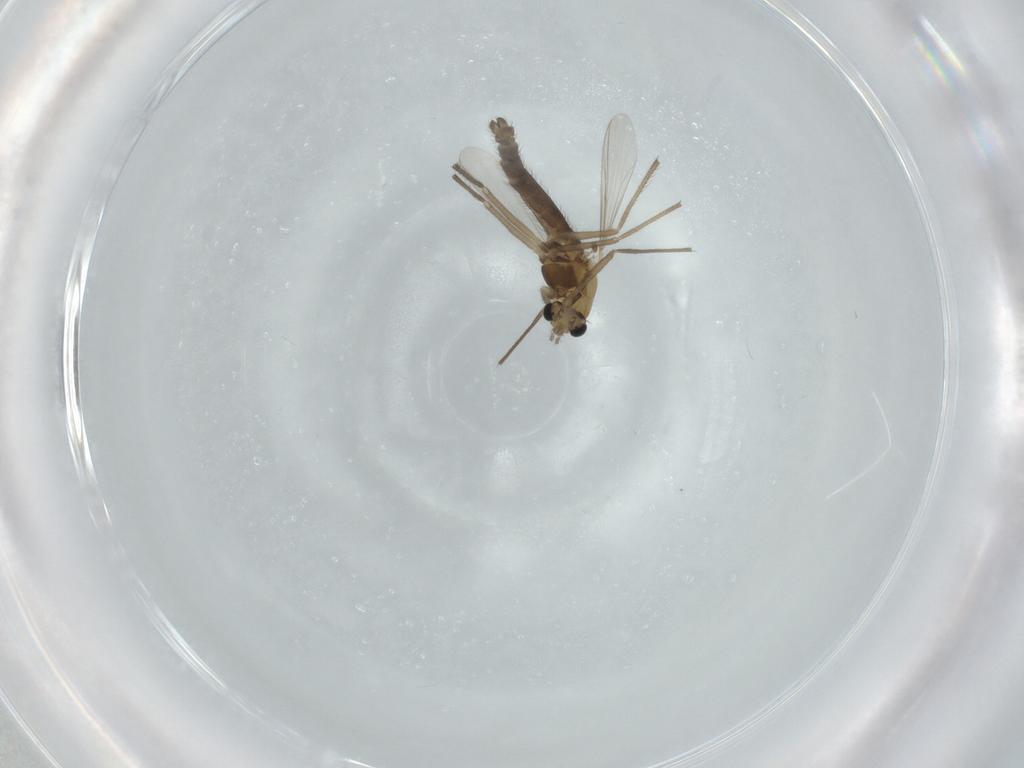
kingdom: Animalia
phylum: Arthropoda
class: Insecta
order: Diptera
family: Chironomidae
